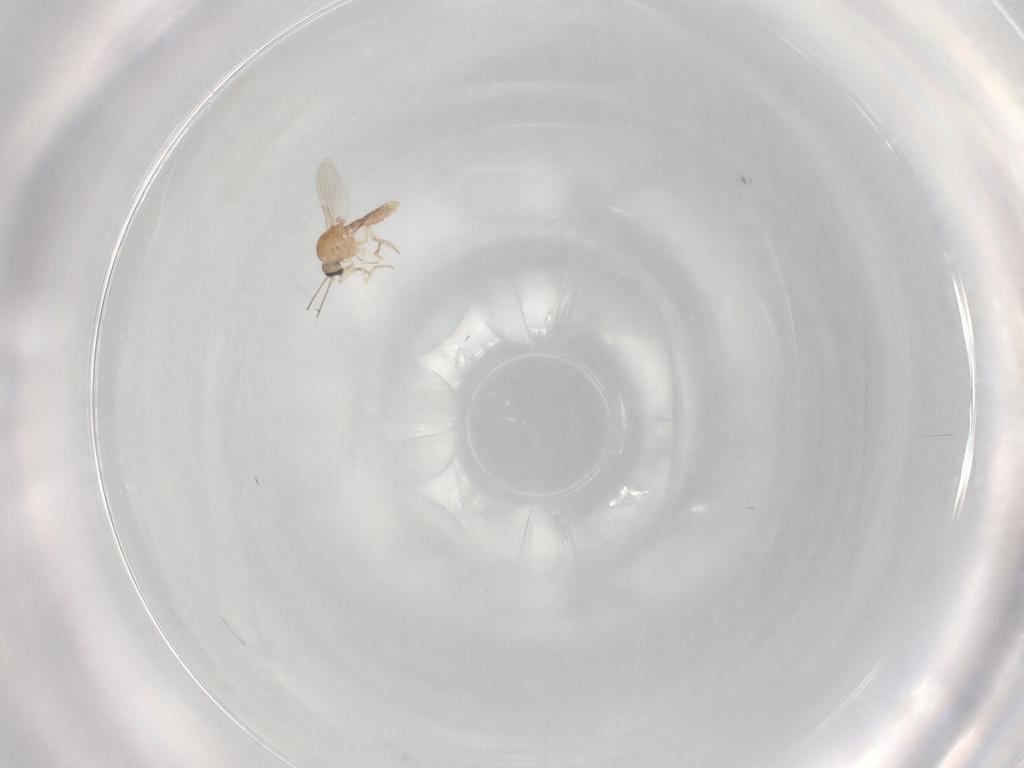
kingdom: Animalia
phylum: Arthropoda
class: Insecta
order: Diptera
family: Ceratopogonidae
